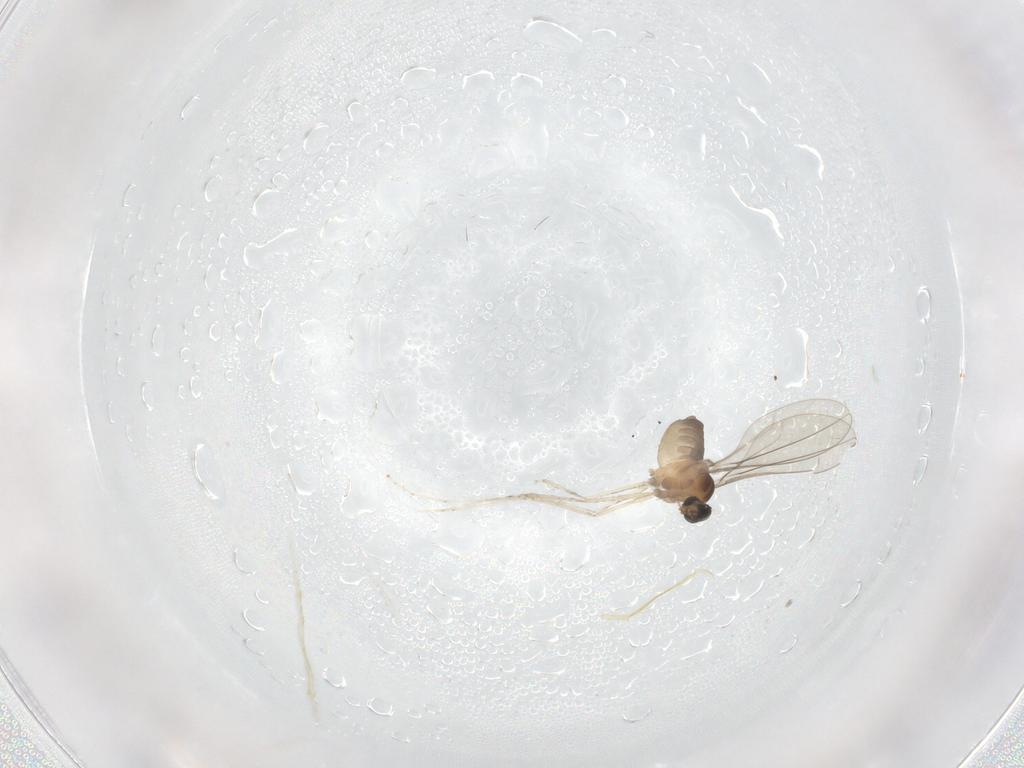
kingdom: Animalia
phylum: Arthropoda
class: Insecta
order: Diptera
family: Cecidomyiidae
